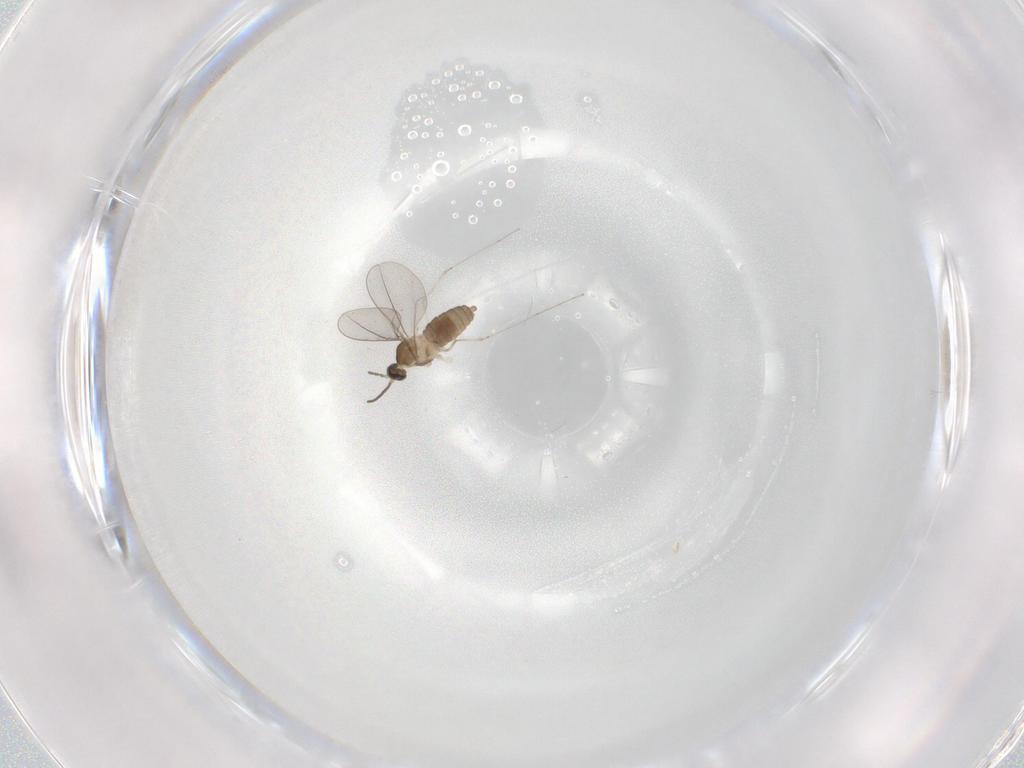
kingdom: Animalia
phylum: Arthropoda
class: Insecta
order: Diptera
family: Cecidomyiidae
